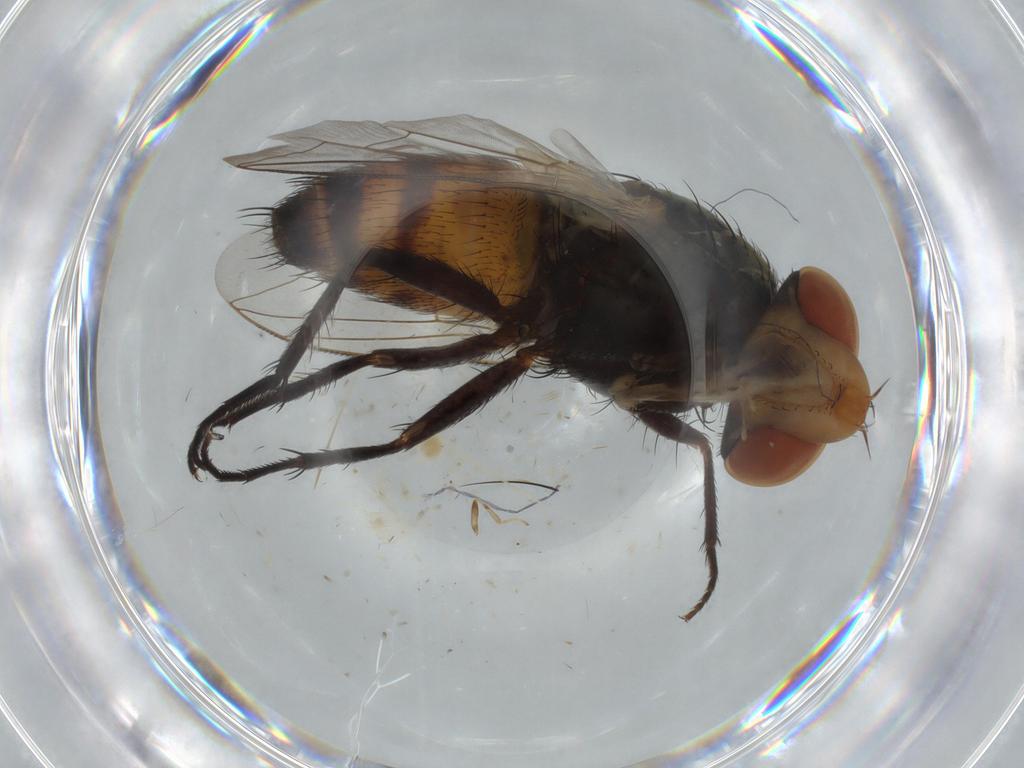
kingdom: Animalia
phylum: Arthropoda
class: Insecta
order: Diptera
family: Sarcophagidae
